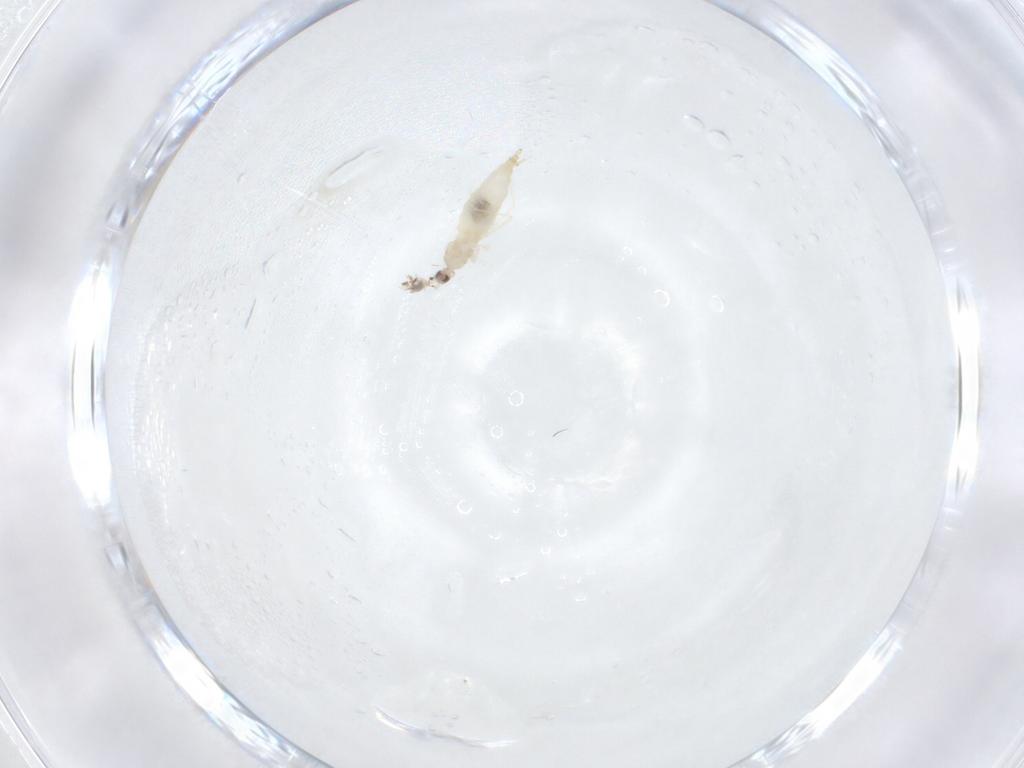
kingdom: Animalia
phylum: Arthropoda
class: Insecta
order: Diptera
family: Cecidomyiidae
